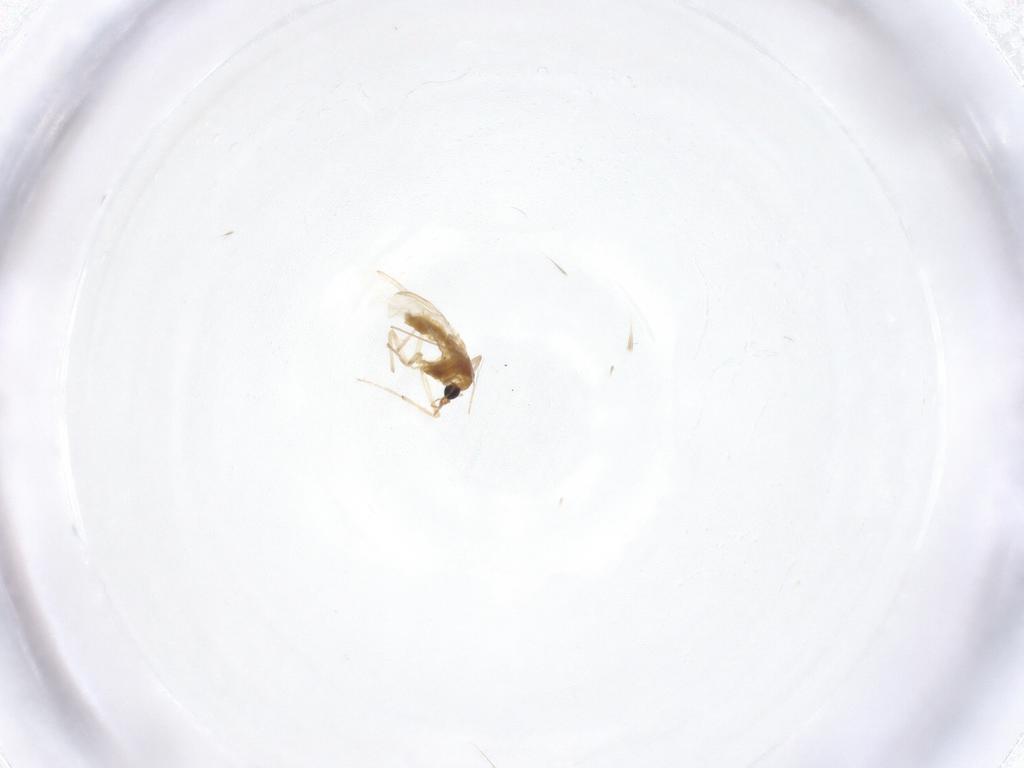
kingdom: Animalia
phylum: Arthropoda
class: Insecta
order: Diptera
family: Chloropidae
